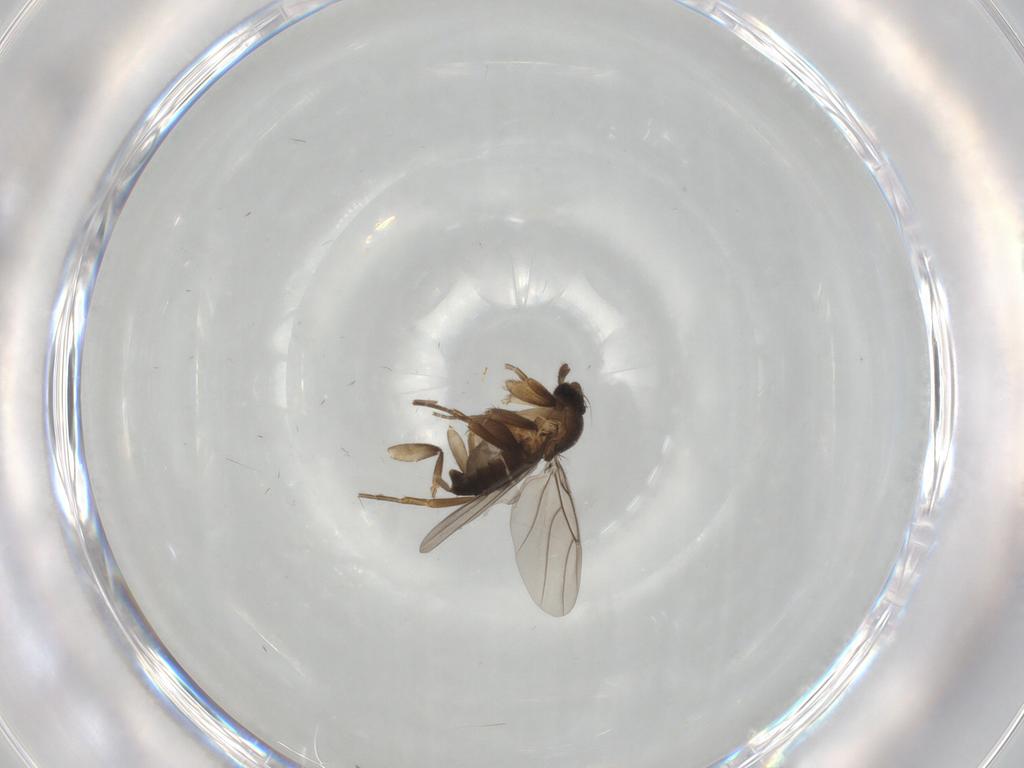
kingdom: Animalia
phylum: Arthropoda
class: Insecta
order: Diptera
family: Phoridae
